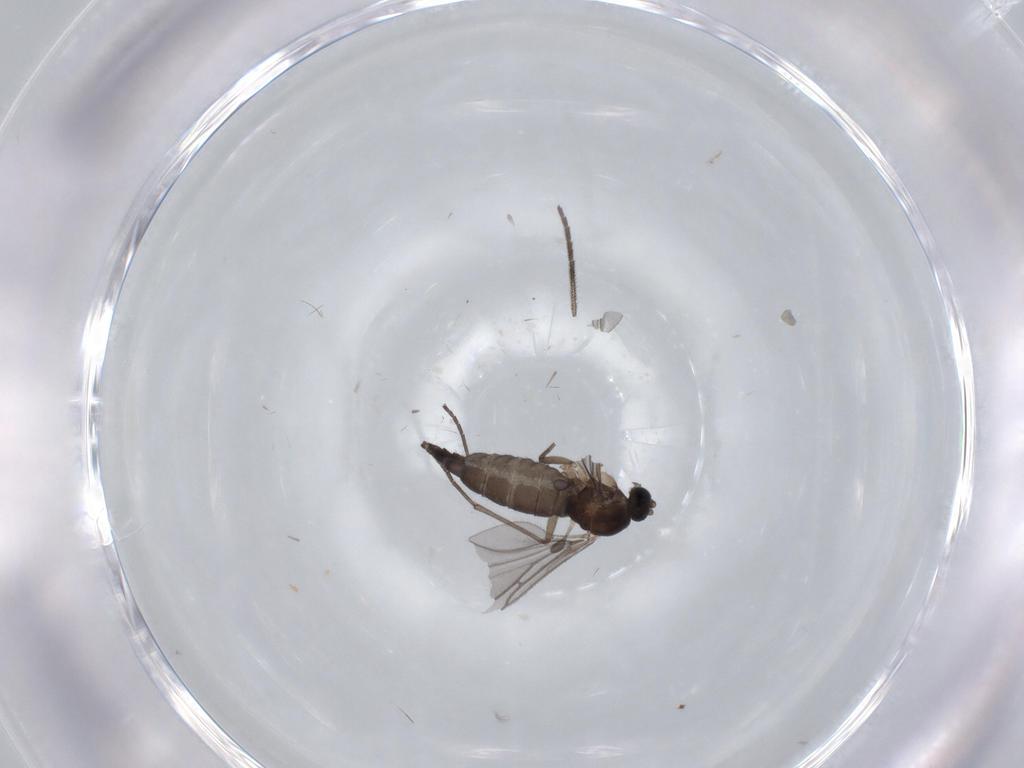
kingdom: Animalia
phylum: Arthropoda
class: Insecta
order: Diptera
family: Sciaridae
